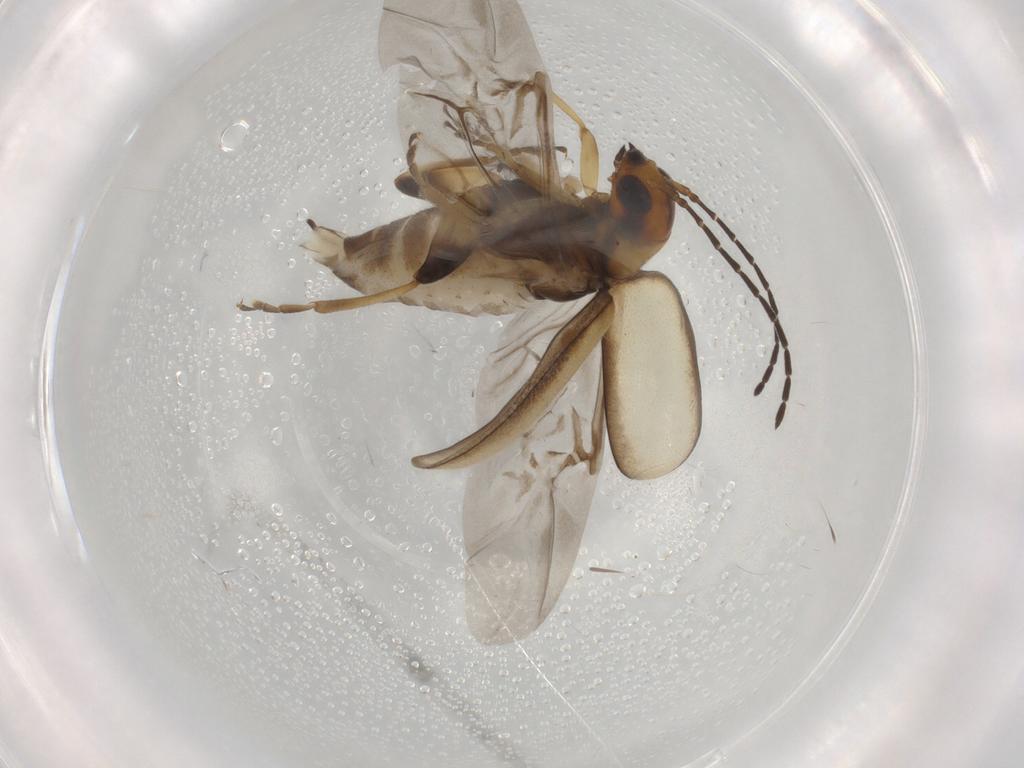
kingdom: Animalia
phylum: Arthropoda
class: Insecta
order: Coleoptera
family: Chrysomelidae
